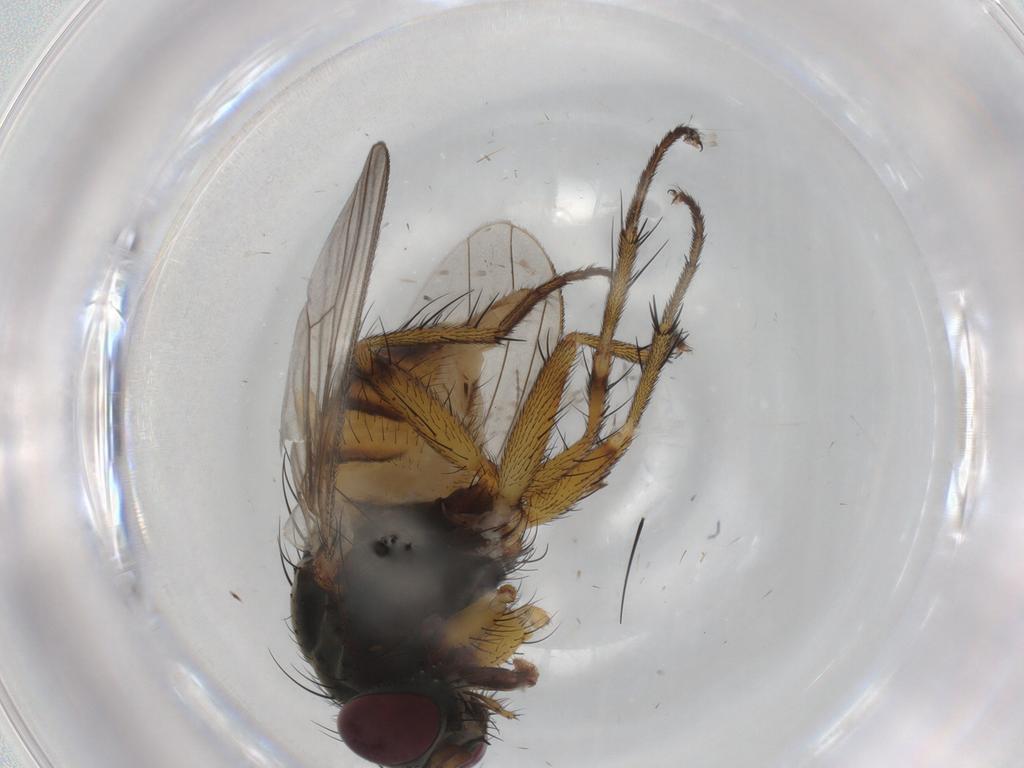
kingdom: Animalia
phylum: Arthropoda
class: Insecta
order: Diptera
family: Muscidae
